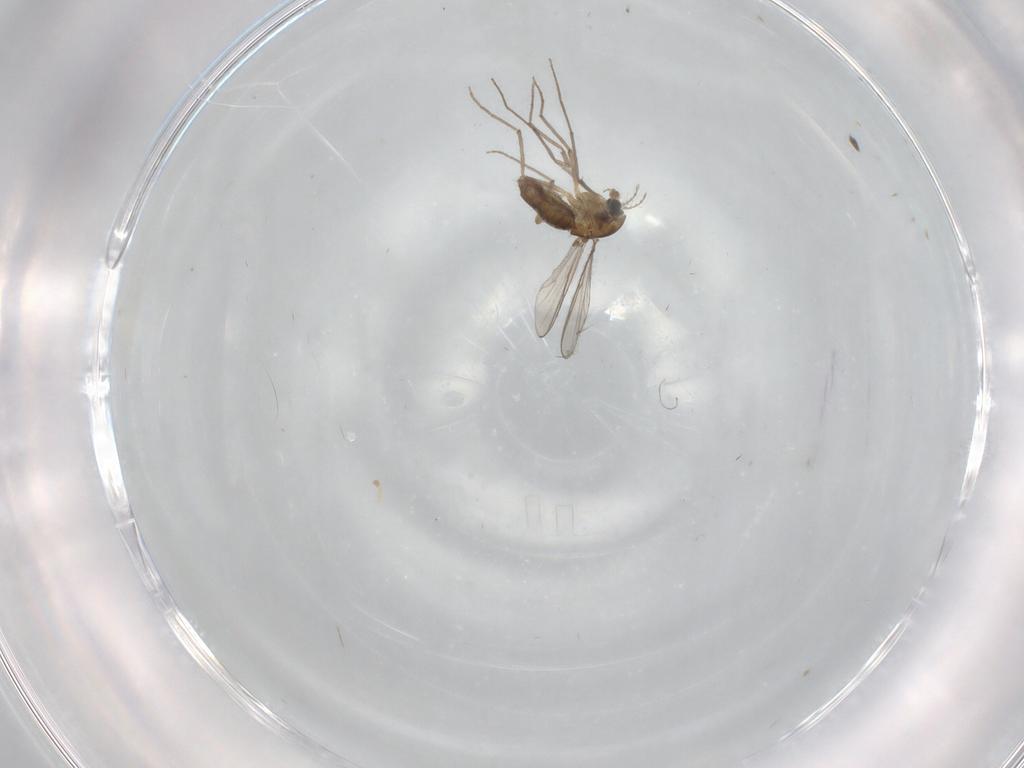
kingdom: Animalia
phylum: Arthropoda
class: Insecta
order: Diptera
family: Chironomidae
